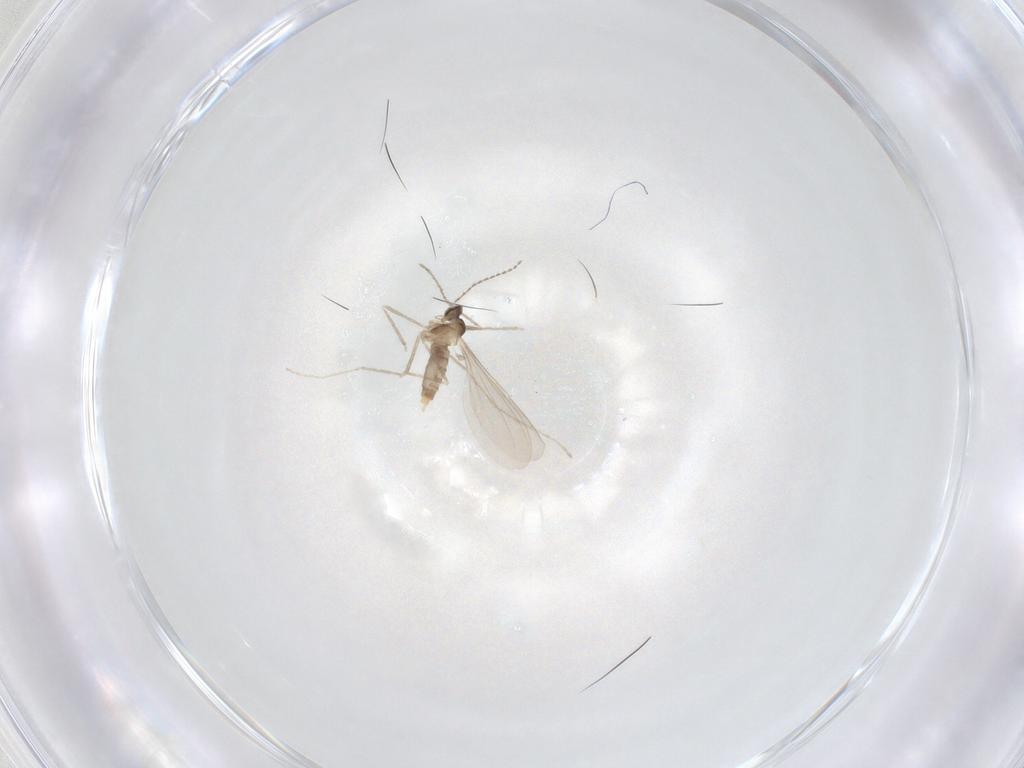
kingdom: Animalia
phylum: Arthropoda
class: Insecta
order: Diptera
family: Cecidomyiidae
